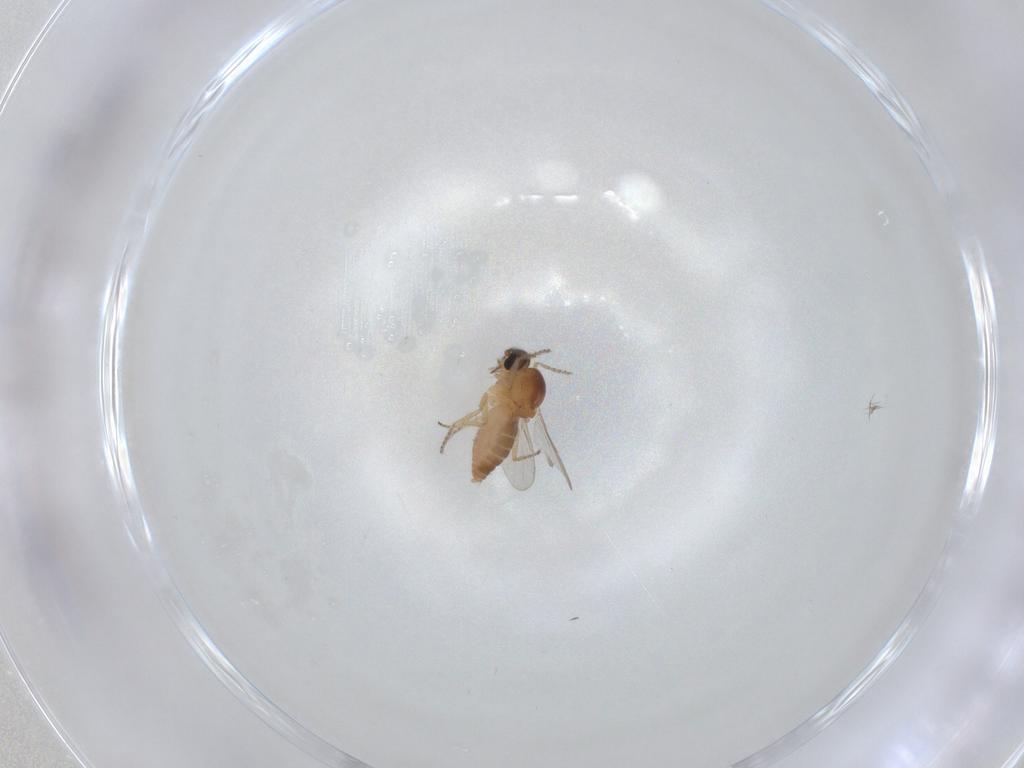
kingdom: Animalia
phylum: Arthropoda
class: Insecta
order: Diptera
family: Ceratopogonidae
